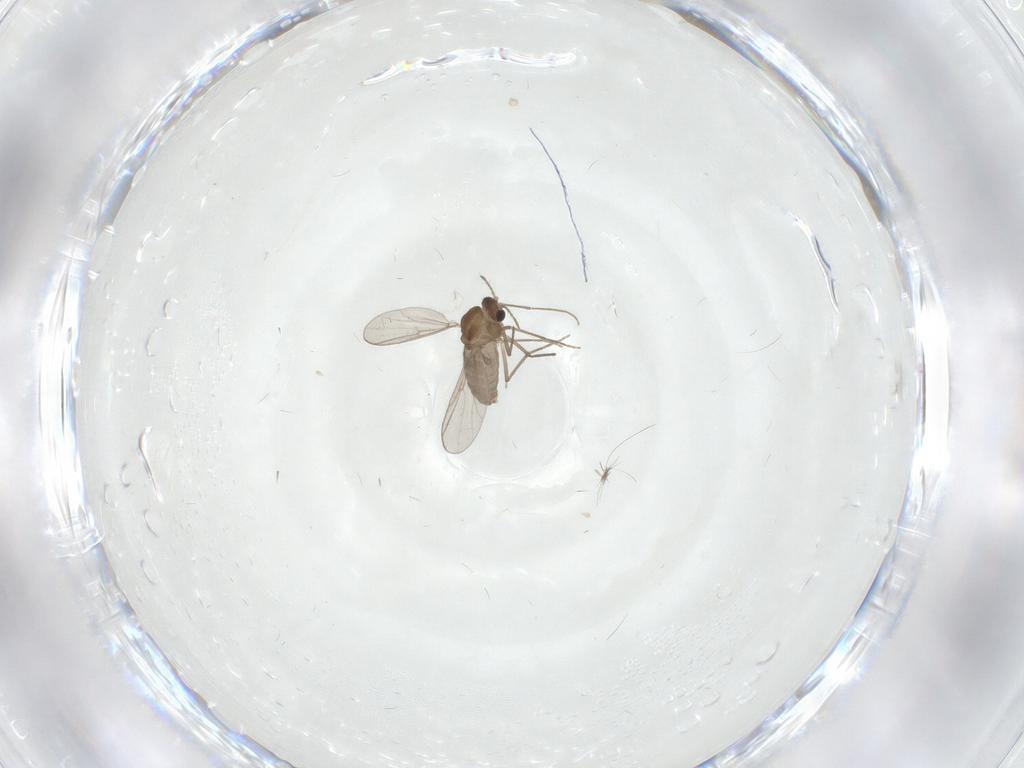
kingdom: Animalia
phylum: Arthropoda
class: Insecta
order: Diptera
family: Chironomidae
